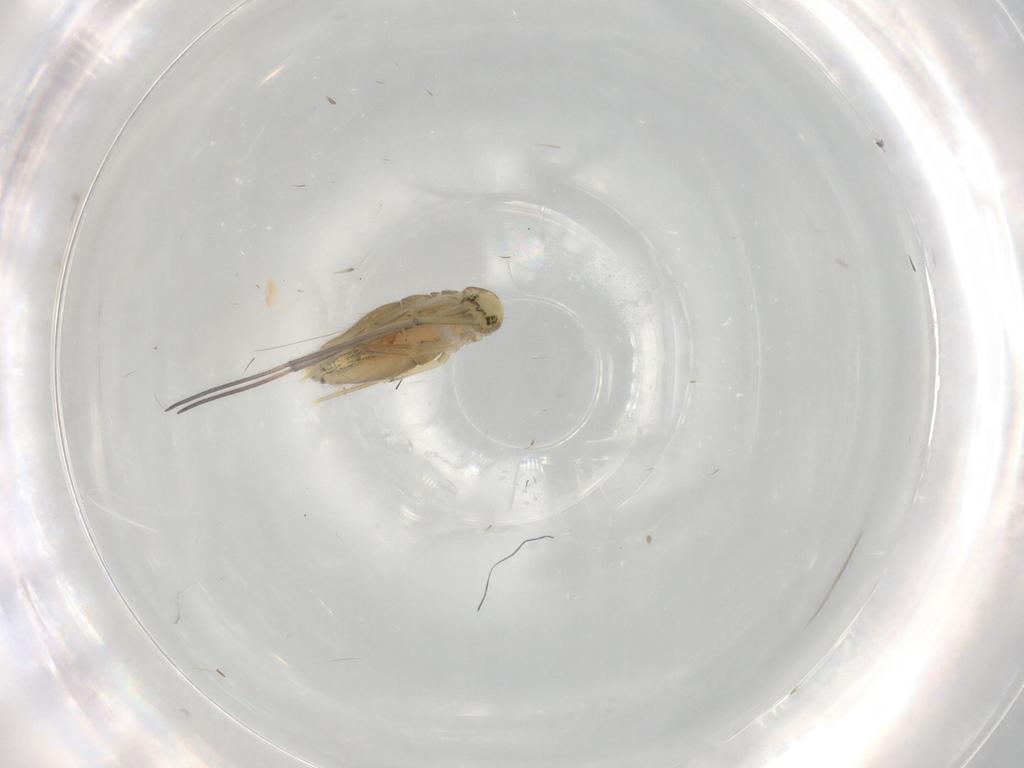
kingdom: Animalia
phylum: Arthropoda
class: Collembola
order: Entomobryomorpha
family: Paronellidae
